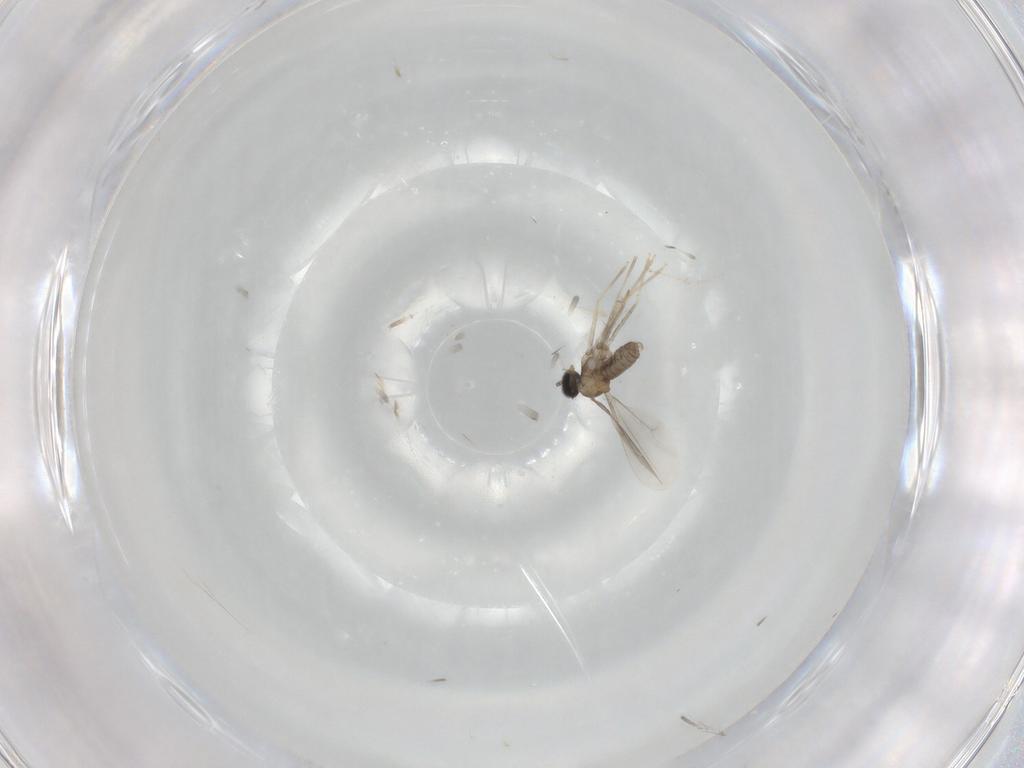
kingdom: Animalia
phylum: Arthropoda
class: Insecta
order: Diptera
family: Cecidomyiidae
